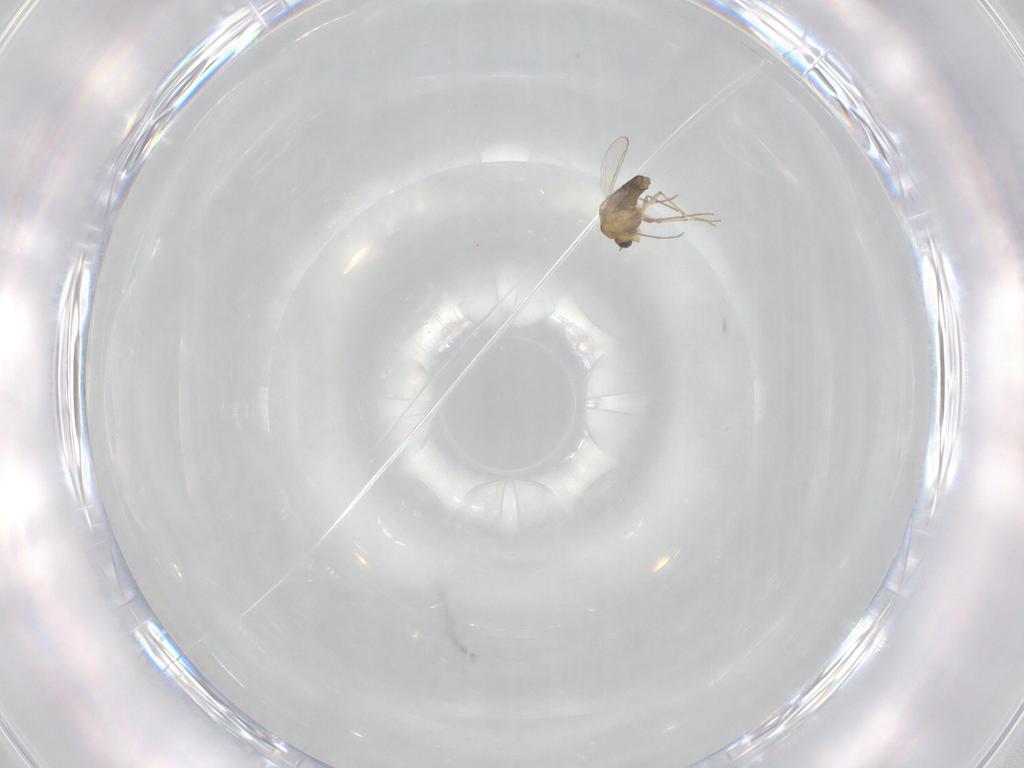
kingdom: Animalia
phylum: Arthropoda
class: Insecta
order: Diptera
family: Chironomidae
